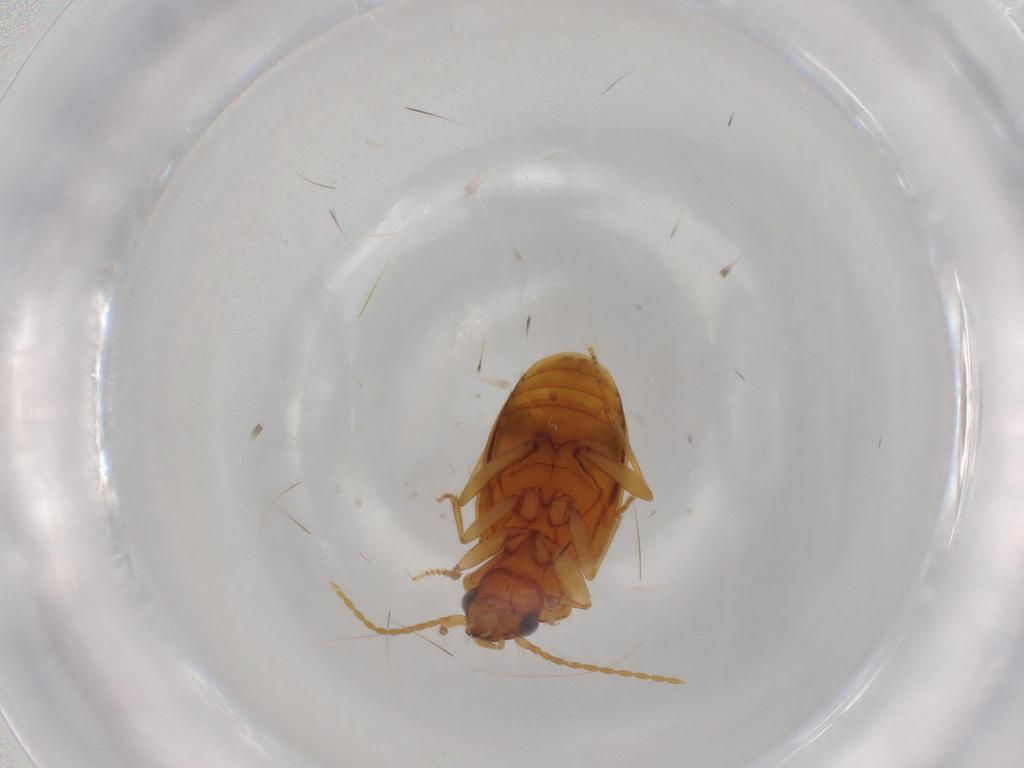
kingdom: Animalia
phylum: Arthropoda
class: Insecta
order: Coleoptera
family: Carabidae
